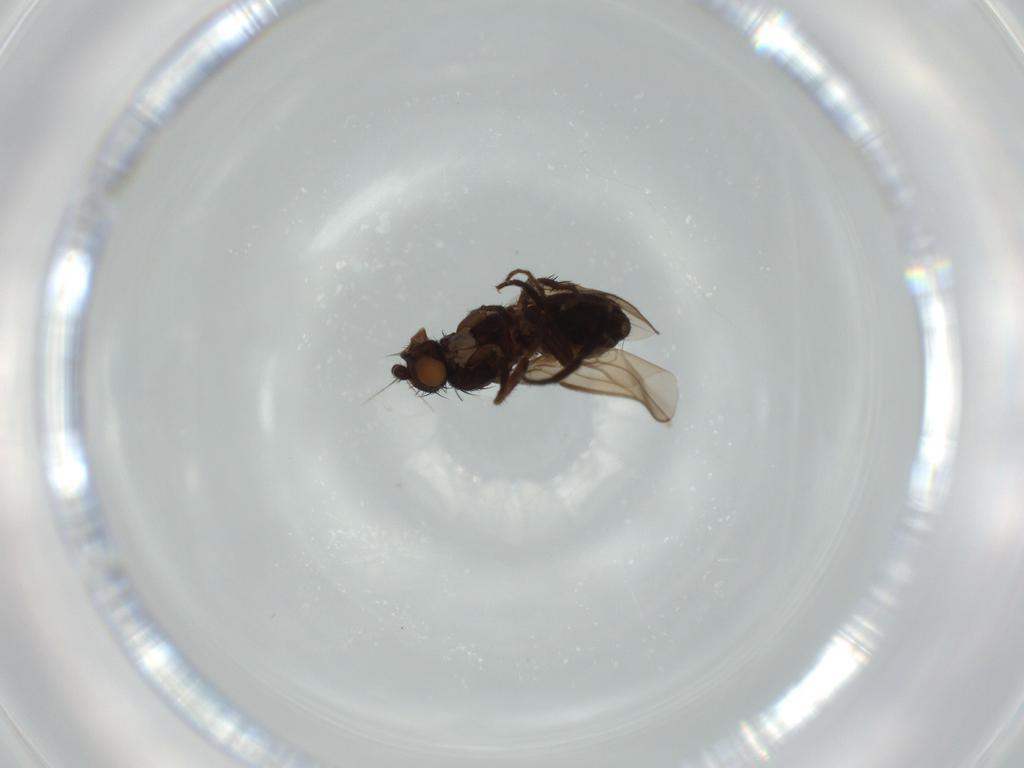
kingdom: Animalia
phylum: Arthropoda
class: Insecta
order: Diptera
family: Sphaeroceridae
